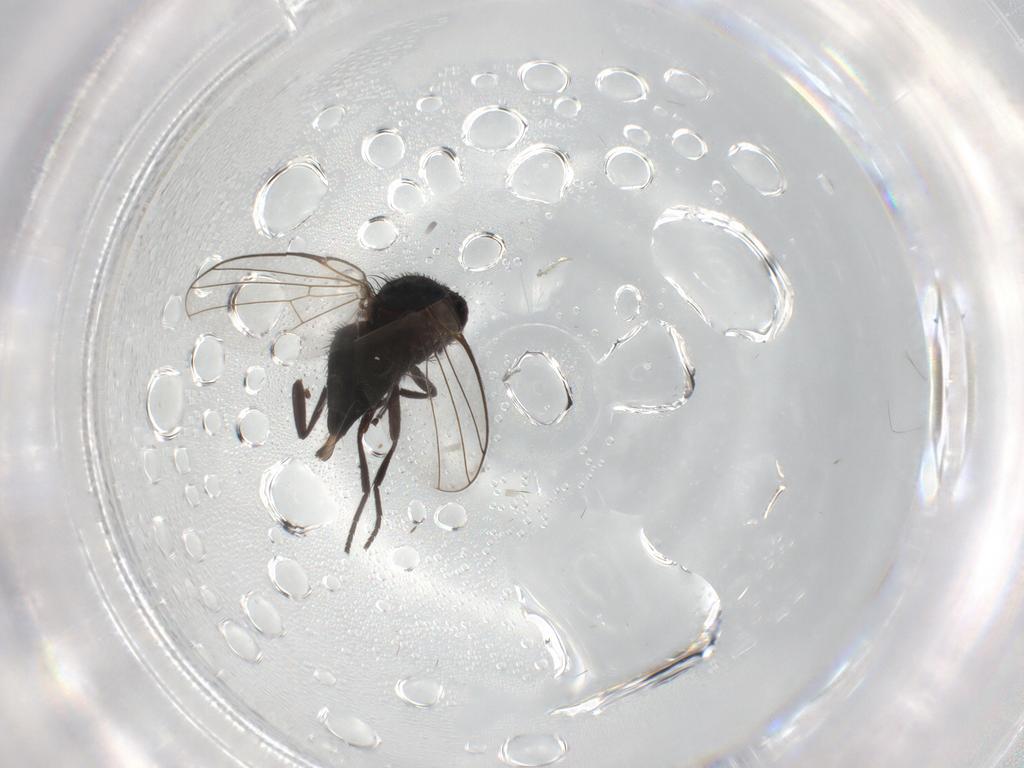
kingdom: Animalia
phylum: Arthropoda
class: Insecta
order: Diptera
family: Agromyzidae
